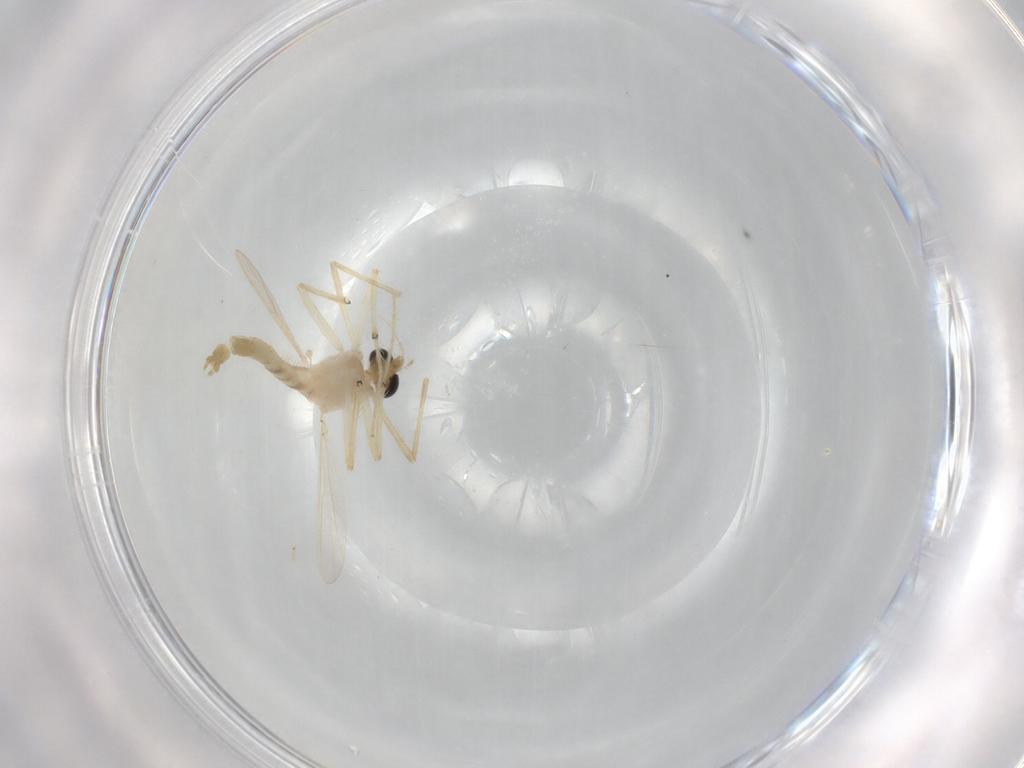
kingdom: Animalia
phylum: Arthropoda
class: Insecta
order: Diptera
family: Chironomidae
